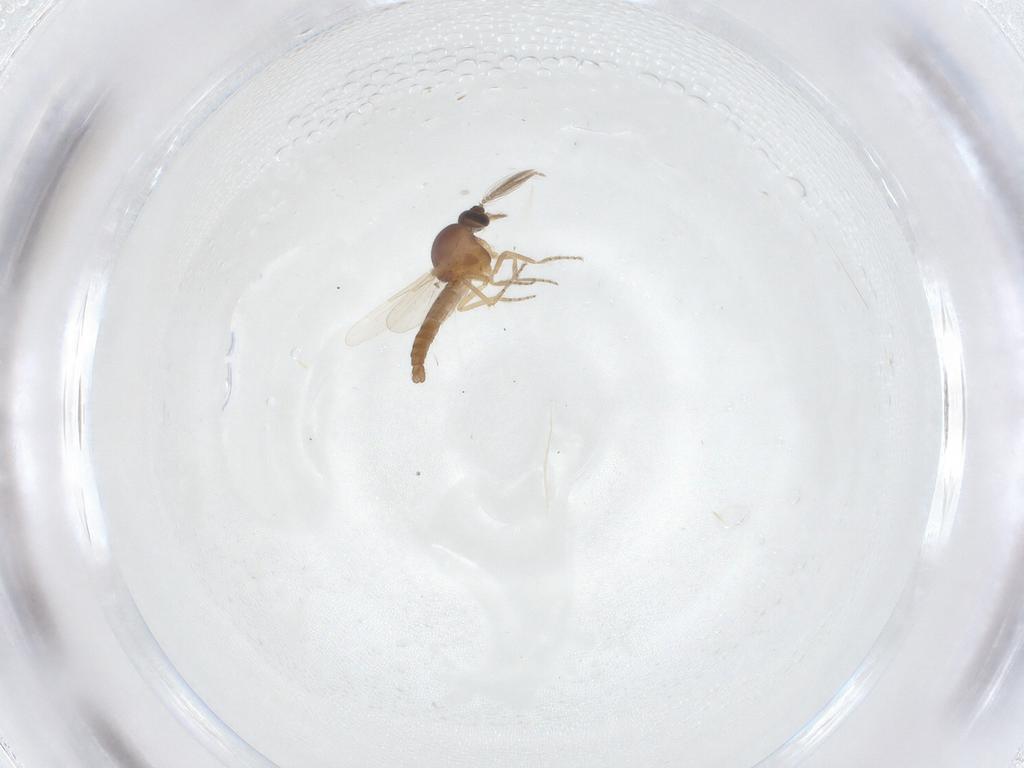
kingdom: Animalia
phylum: Arthropoda
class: Insecta
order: Diptera
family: Ceratopogonidae
